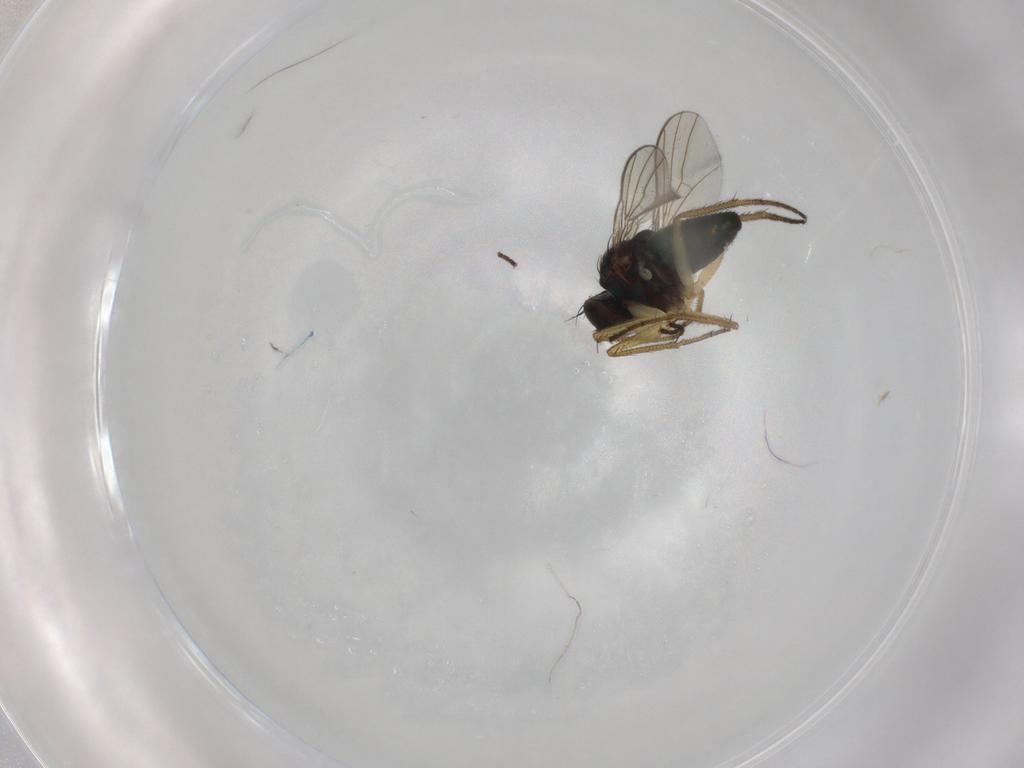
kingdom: Animalia
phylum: Arthropoda
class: Insecta
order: Diptera
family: Dolichopodidae
